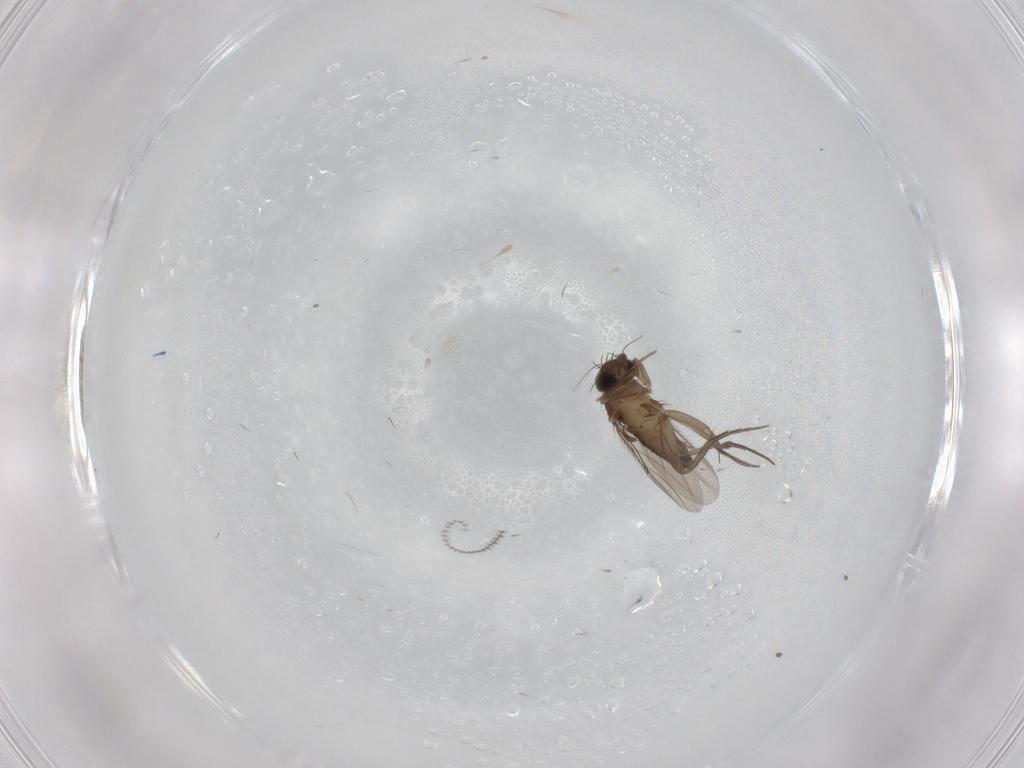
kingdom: Animalia
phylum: Arthropoda
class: Insecta
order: Diptera
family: Phoridae
